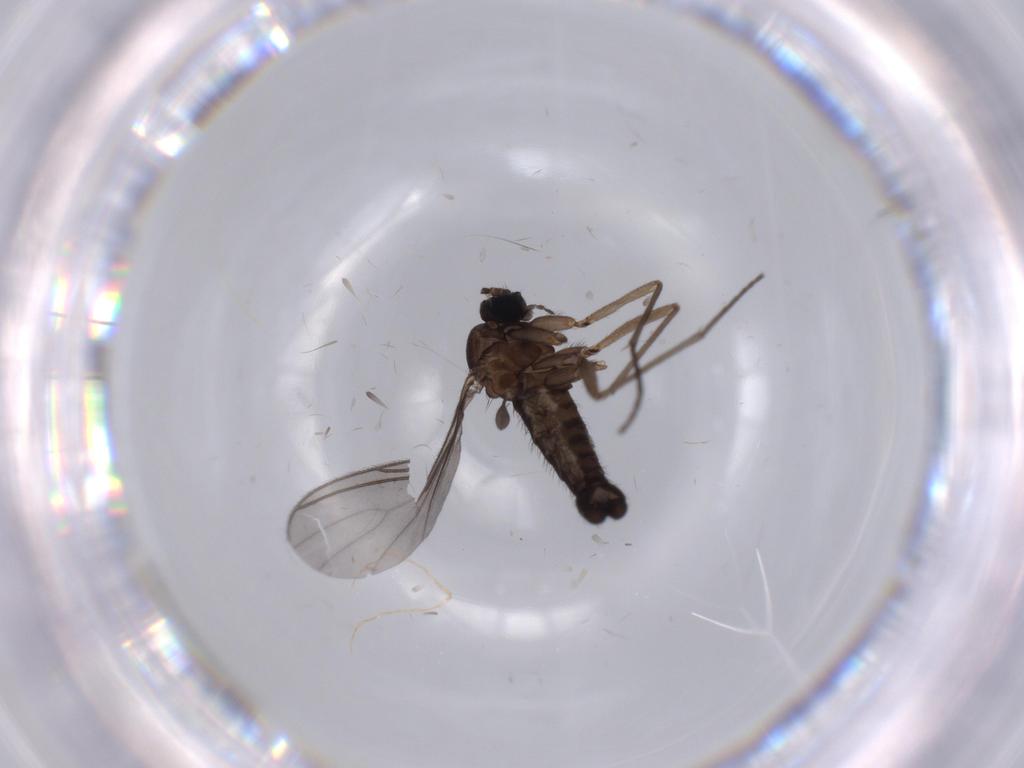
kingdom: Animalia
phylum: Arthropoda
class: Insecta
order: Diptera
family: Sciaridae
